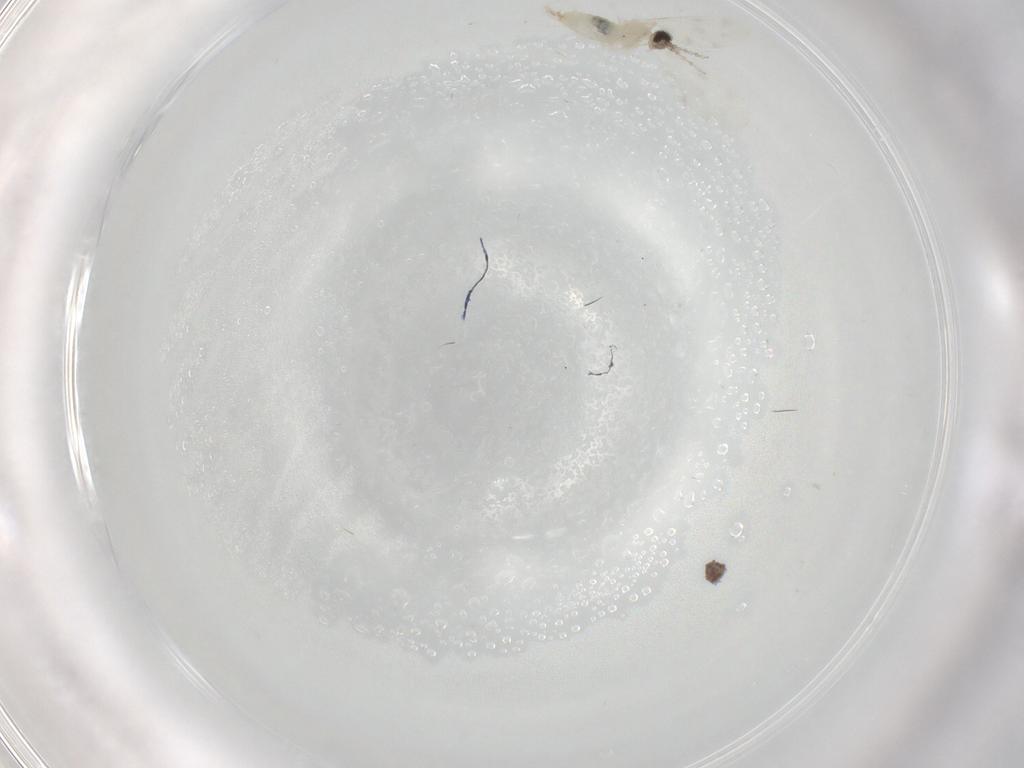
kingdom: Animalia
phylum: Arthropoda
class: Insecta
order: Diptera
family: Cecidomyiidae
